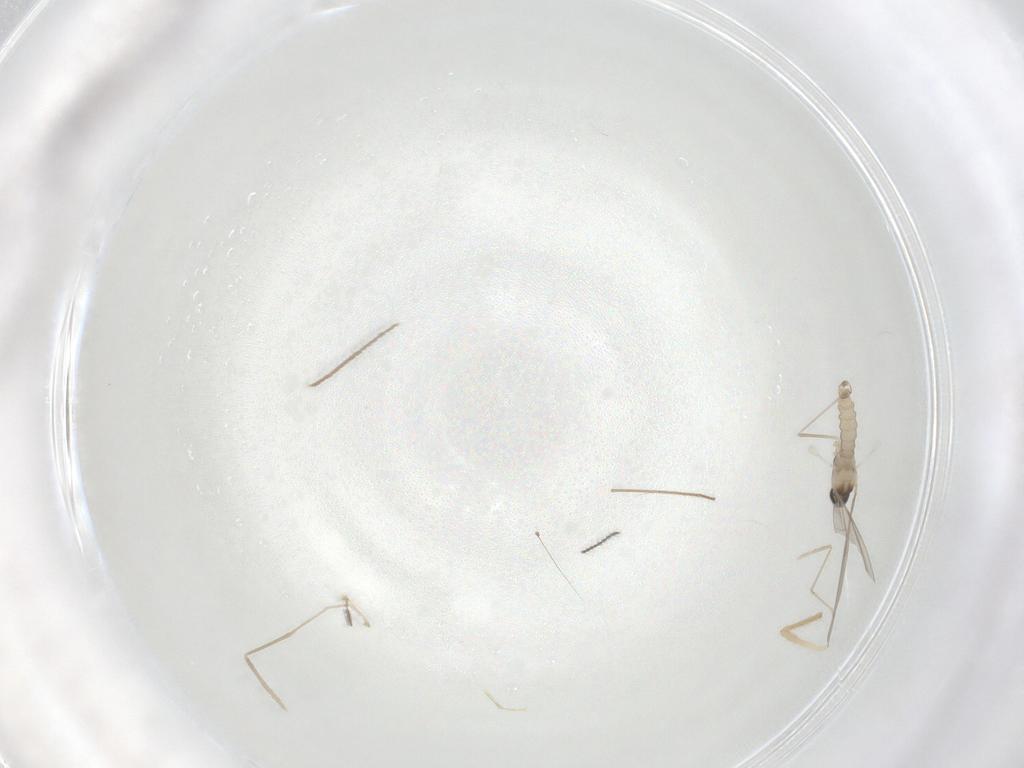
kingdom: Animalia
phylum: Arthropoda
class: Insecta
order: Diptera
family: Cecidomyiidae
